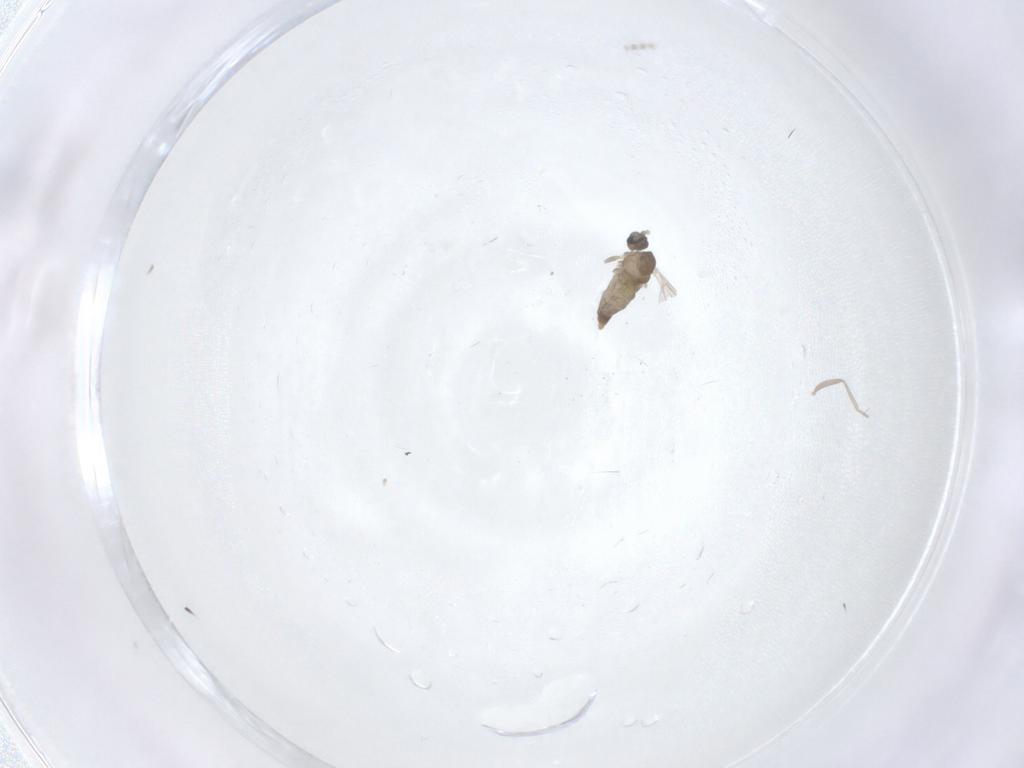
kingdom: Animalia
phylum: Arthropoda
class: Insecta
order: Diptera
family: Cecidomyiidae
